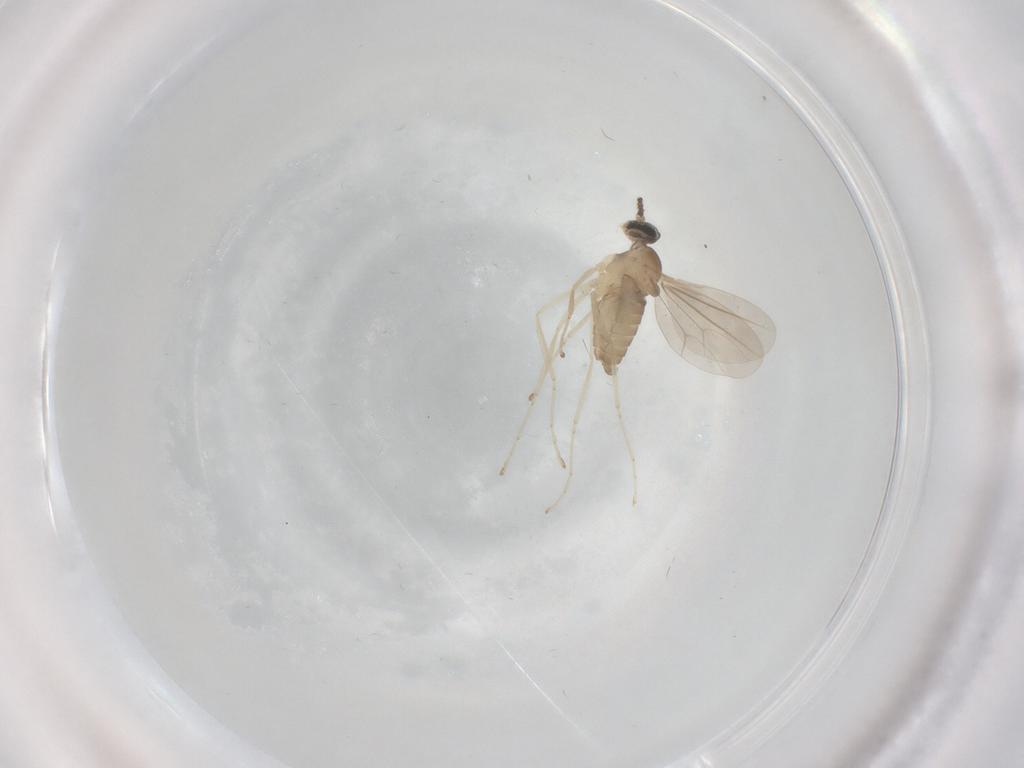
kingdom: Animalia
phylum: Arthropoda
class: Insecta
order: Diptera
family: Cecidomyiidae
